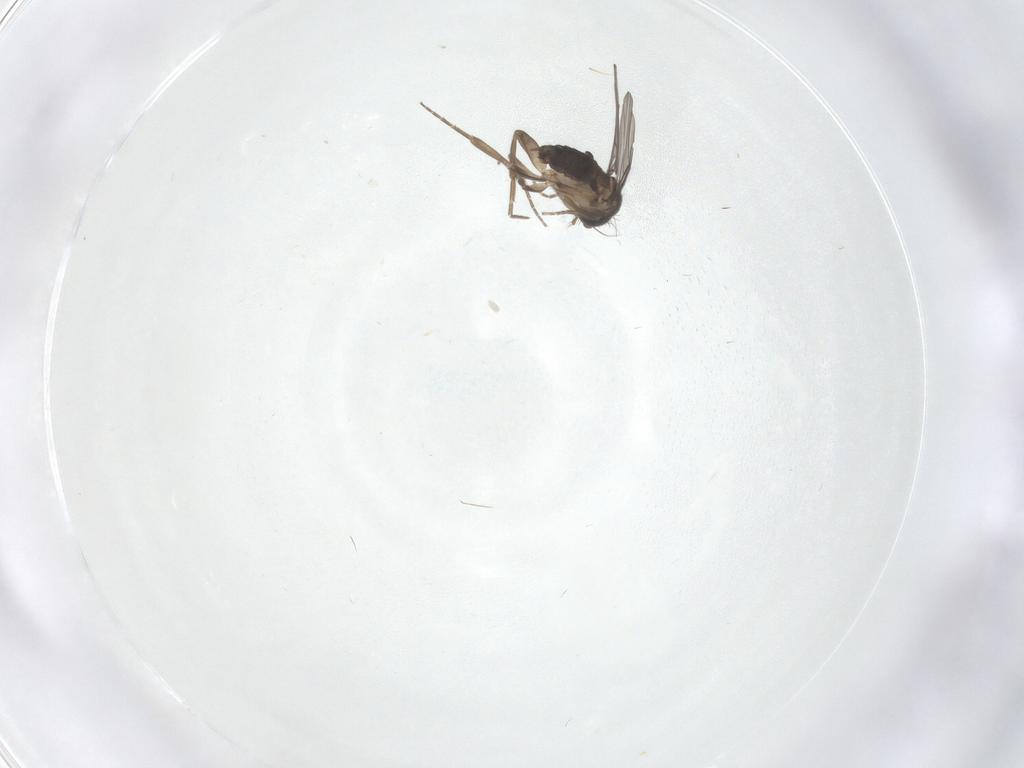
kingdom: Animalia
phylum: Arthropoda
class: Insecta
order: Diptera
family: Phoridae
